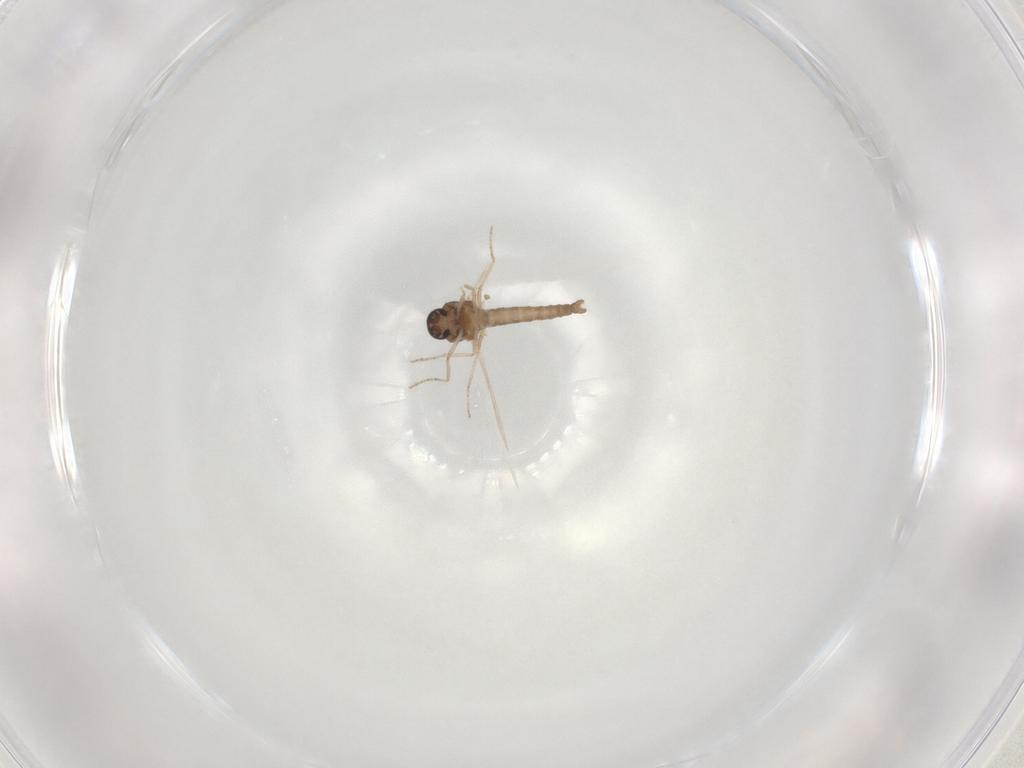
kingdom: Animalia
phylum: Arthropoda
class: Insecta
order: Diptera
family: Ceratopogonidae
